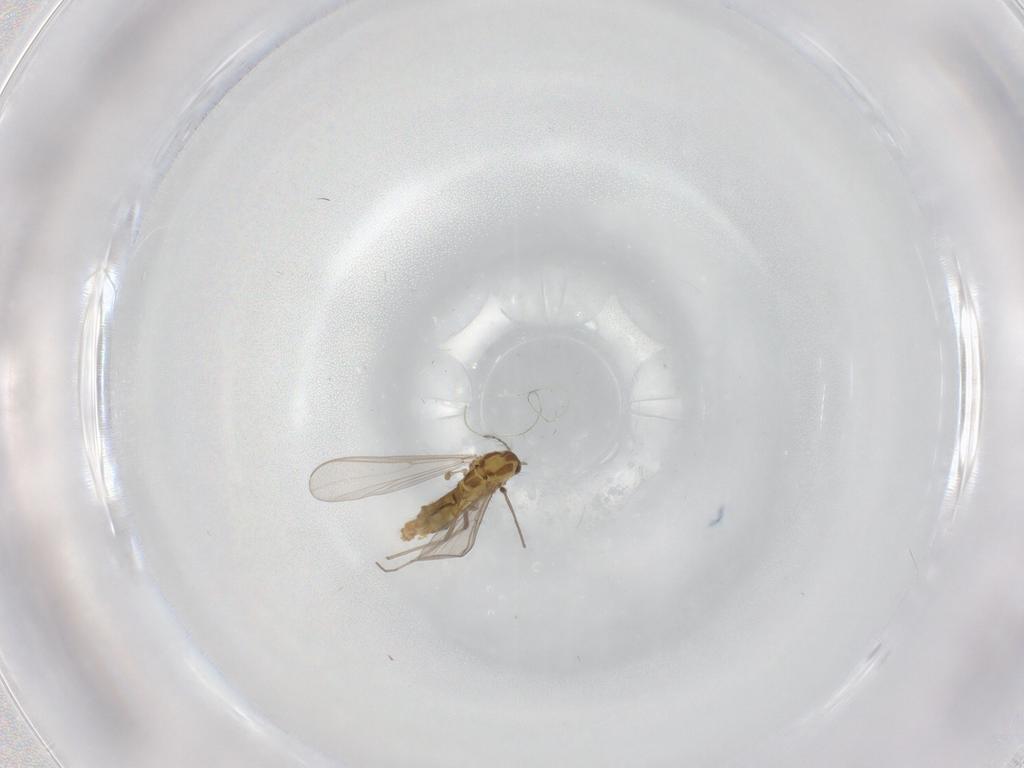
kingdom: Animalia
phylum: Arthropoda
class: Insecta
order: Diptera
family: Chironomidae
